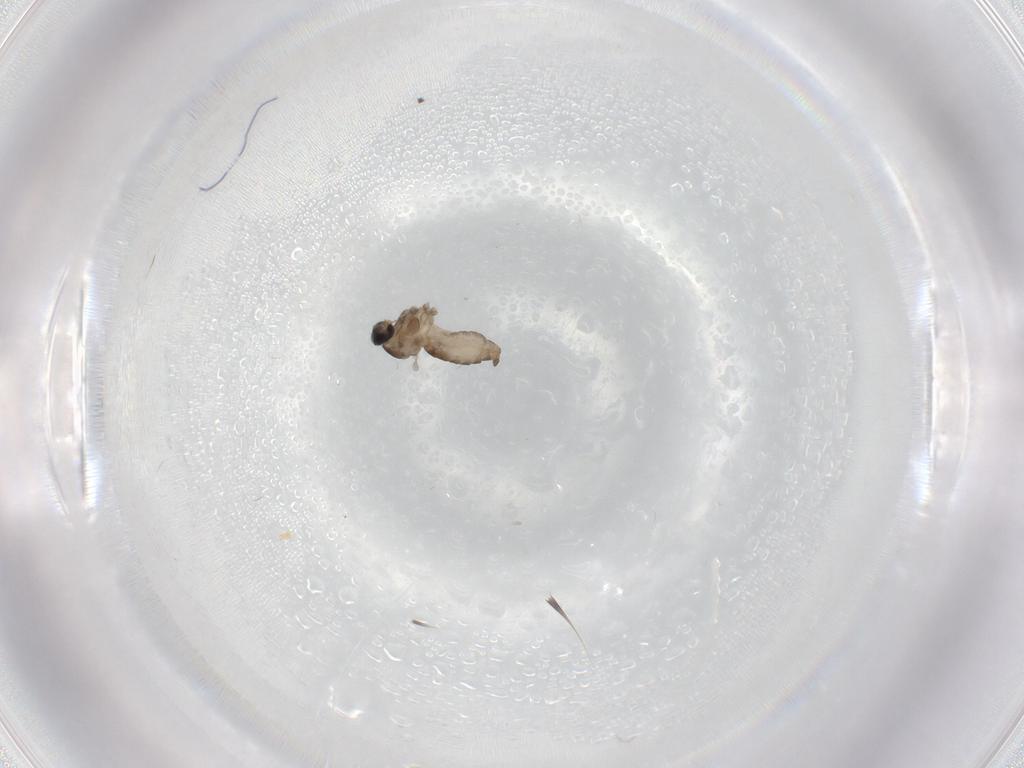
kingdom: Animalia
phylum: Arthropoda
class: Insecta
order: Diptera
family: Cecidomyiidae
